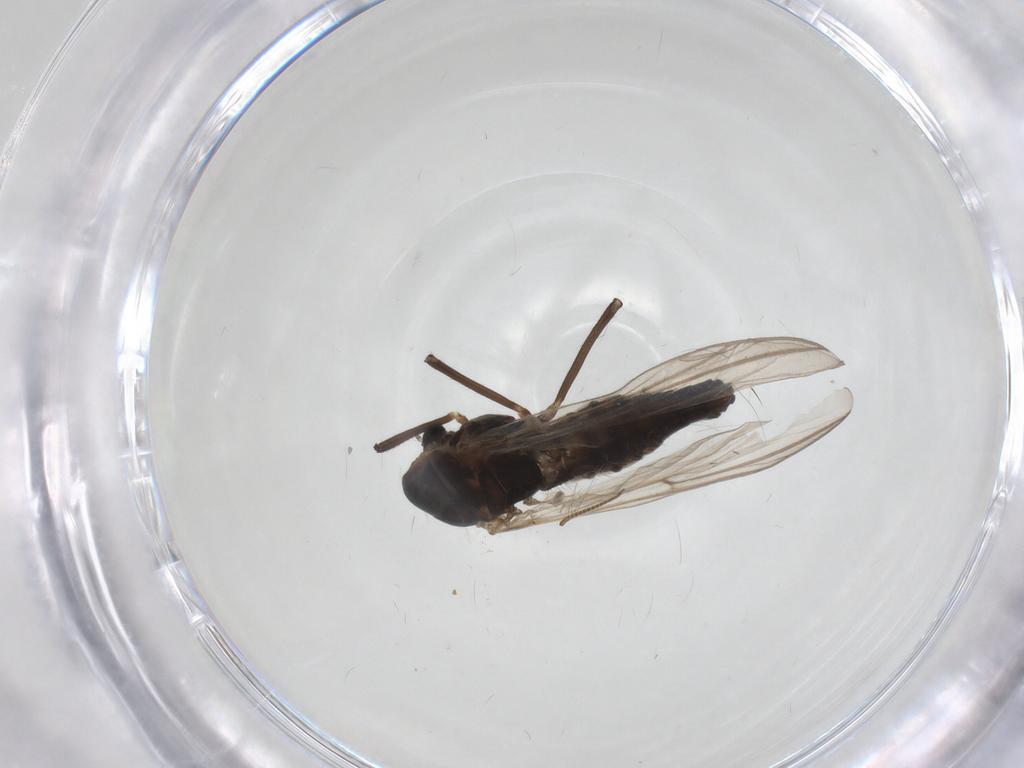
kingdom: Animalia
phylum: Arthropoda
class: Insecta
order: Diptera
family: Chironomidae
